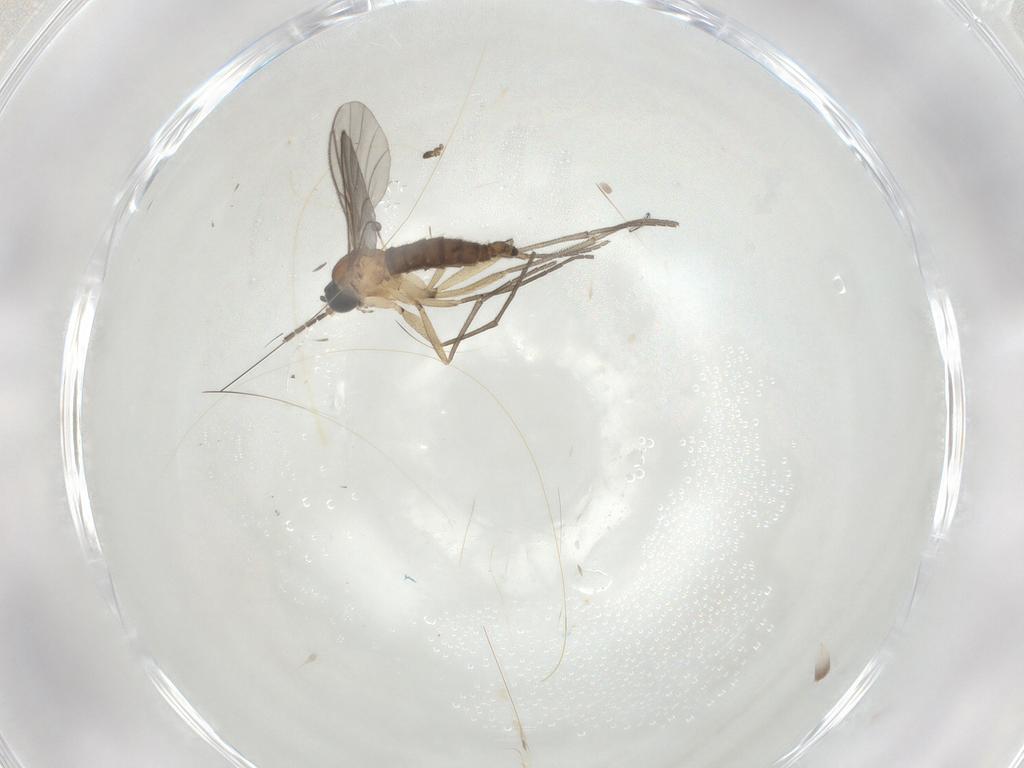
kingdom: Animalia
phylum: Arthropoda
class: Insecta
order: Diptera
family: Sciaridae
